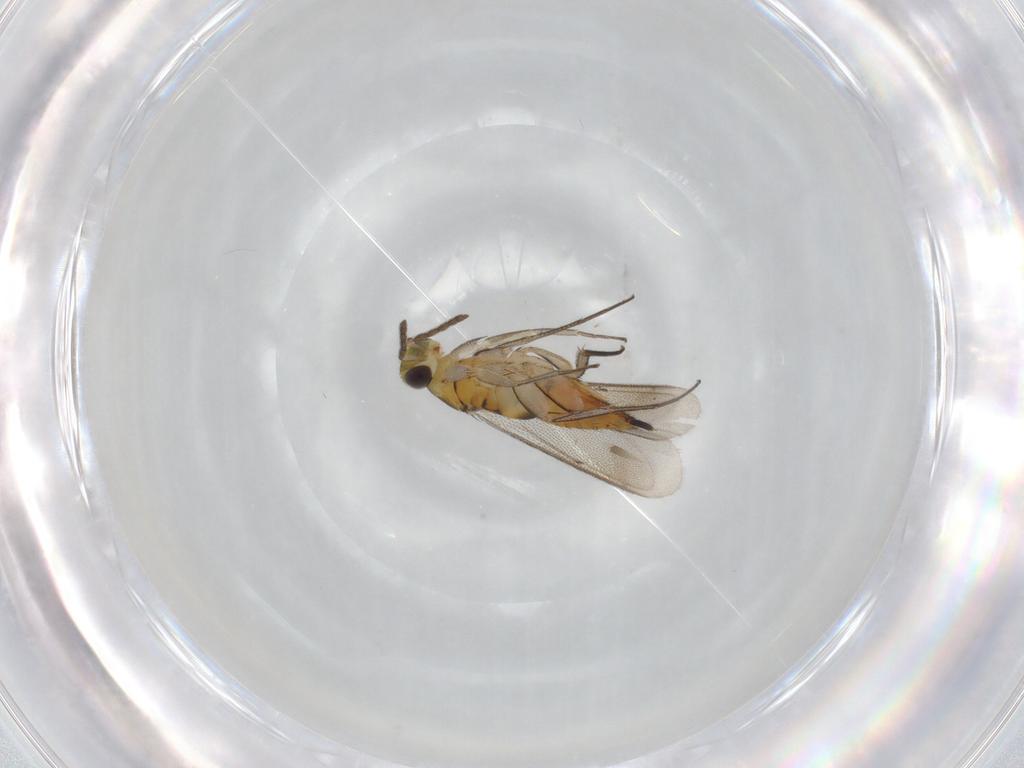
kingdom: Animalia
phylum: Arthropoda
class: Insecta
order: Hymenoptera
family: Eulophidae
